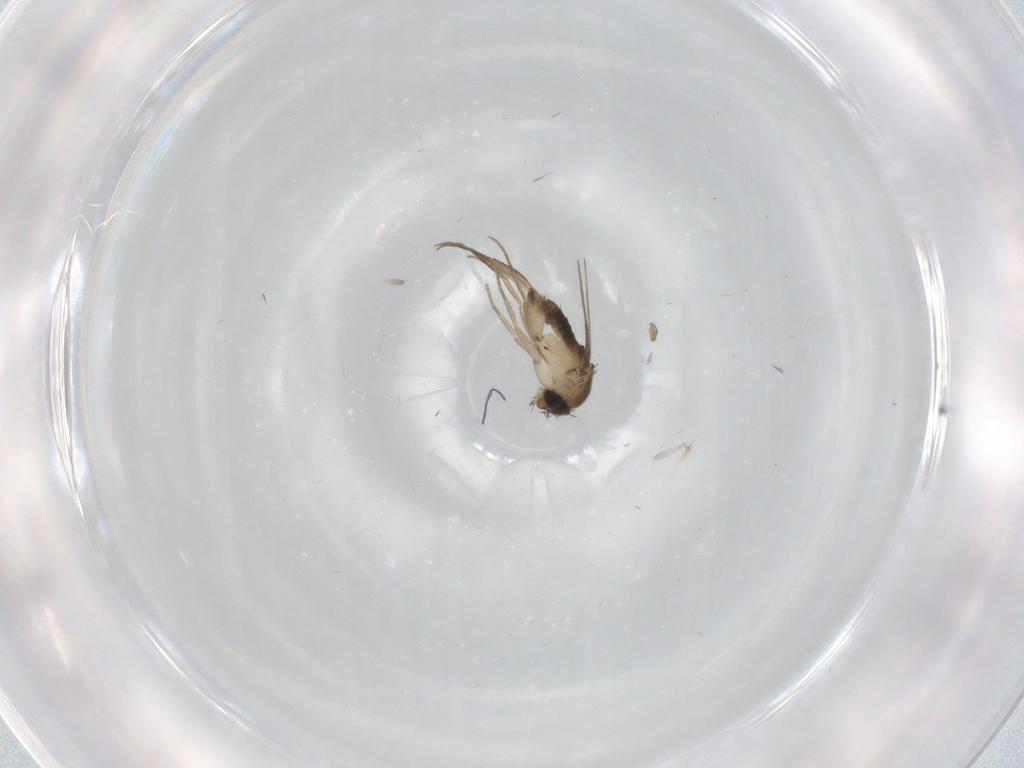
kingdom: Animalia
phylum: Arthropoda
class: Insecta
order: Diptera
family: Phoridae
